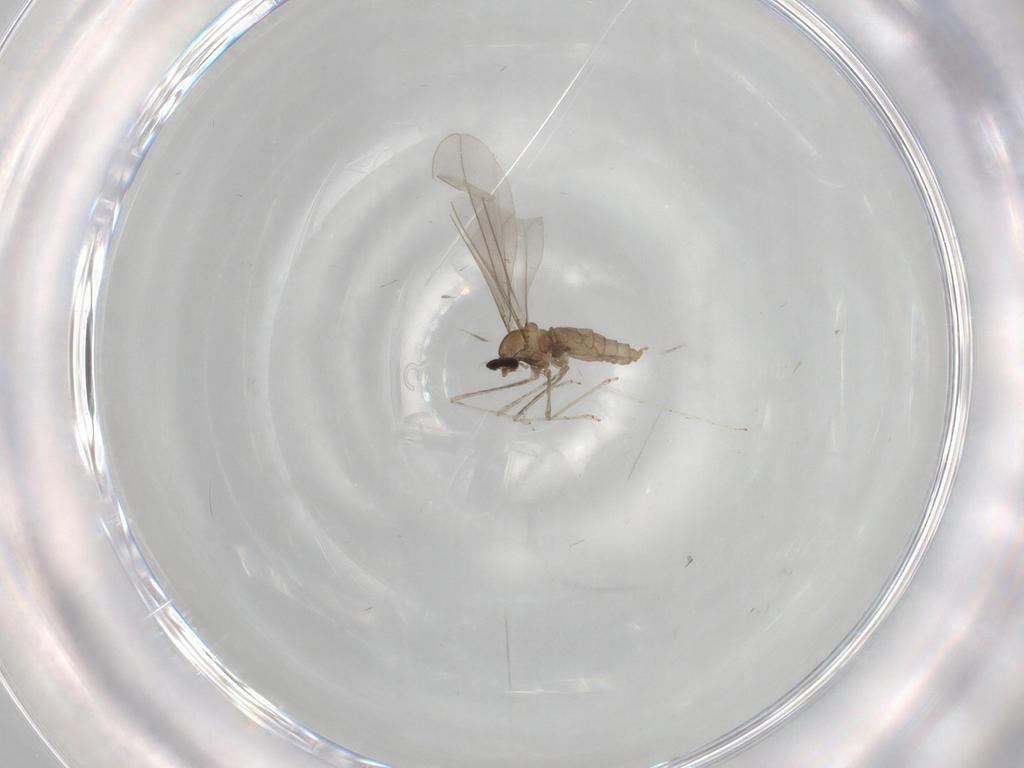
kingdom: Animalia
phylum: Arthropoda
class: Insecta
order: Diptera
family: Cecidomyiidae
